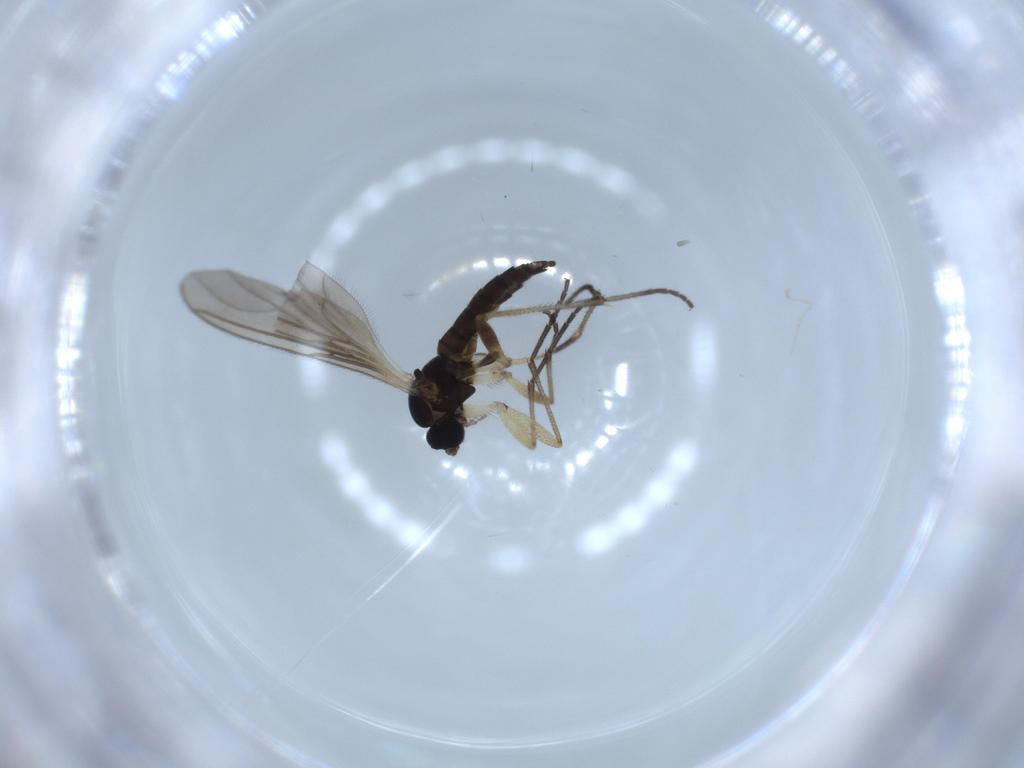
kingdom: Animalia
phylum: Arthropoda
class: Insecta
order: Diptera
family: Sciaridae
